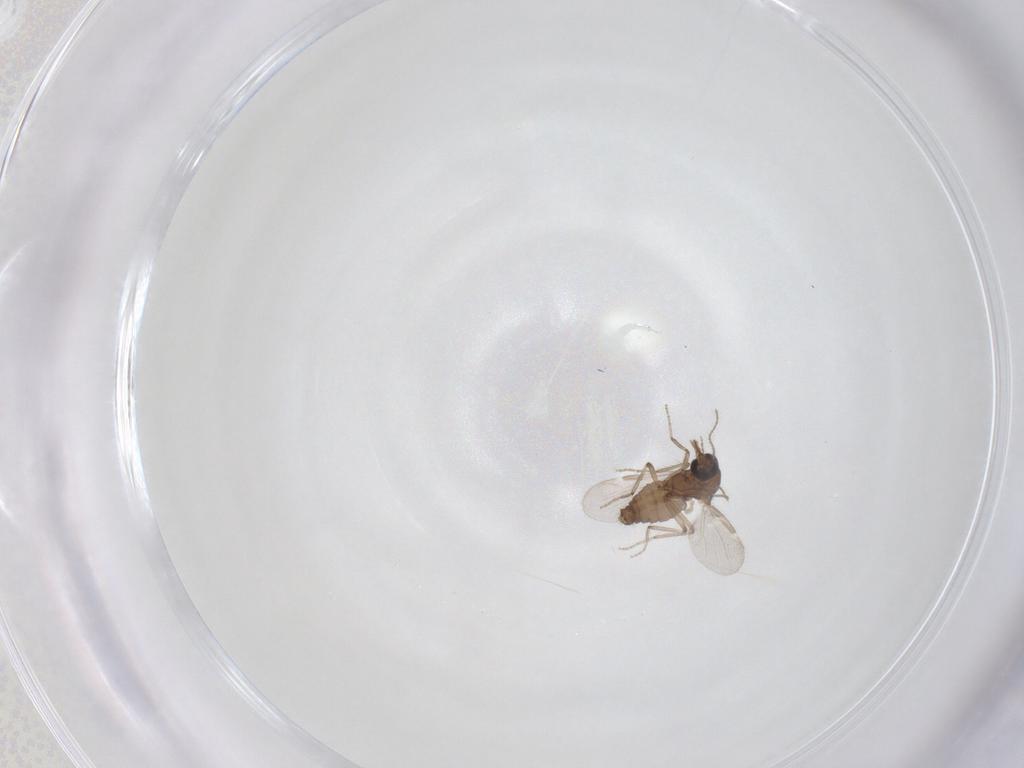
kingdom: Animalia
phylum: Arthropoda
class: Insecta
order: Diptera
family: Ceratopogonidae
